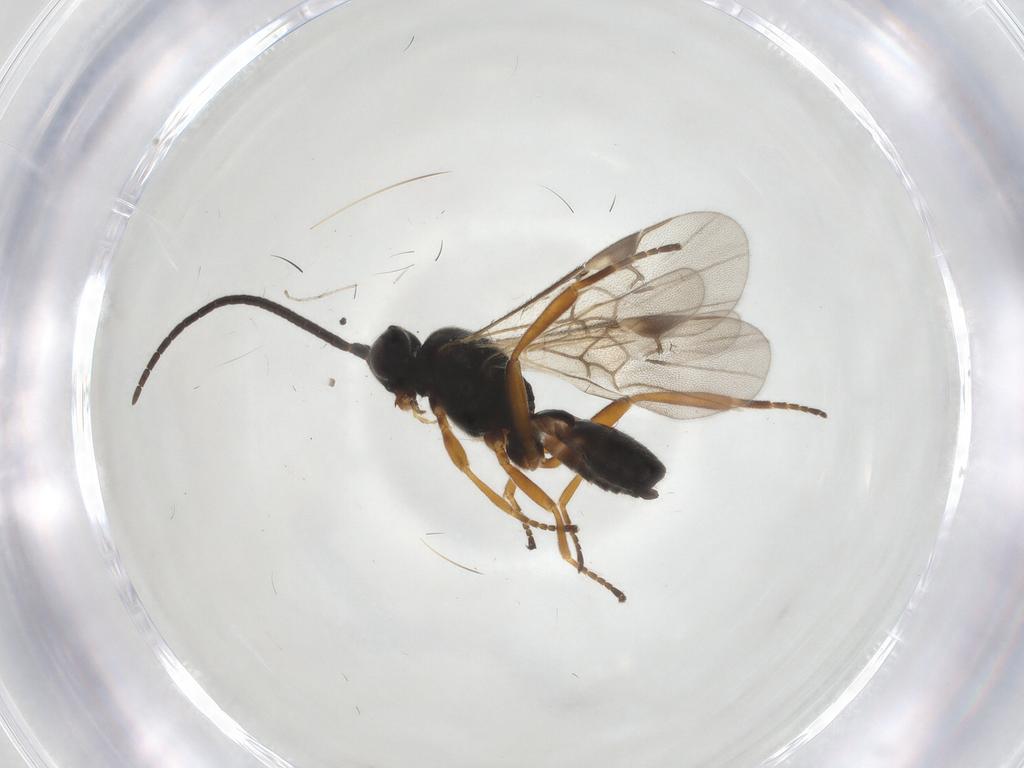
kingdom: Animalia
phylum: Arthropoda
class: Insecta
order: Hymenoptera
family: Braconidae
